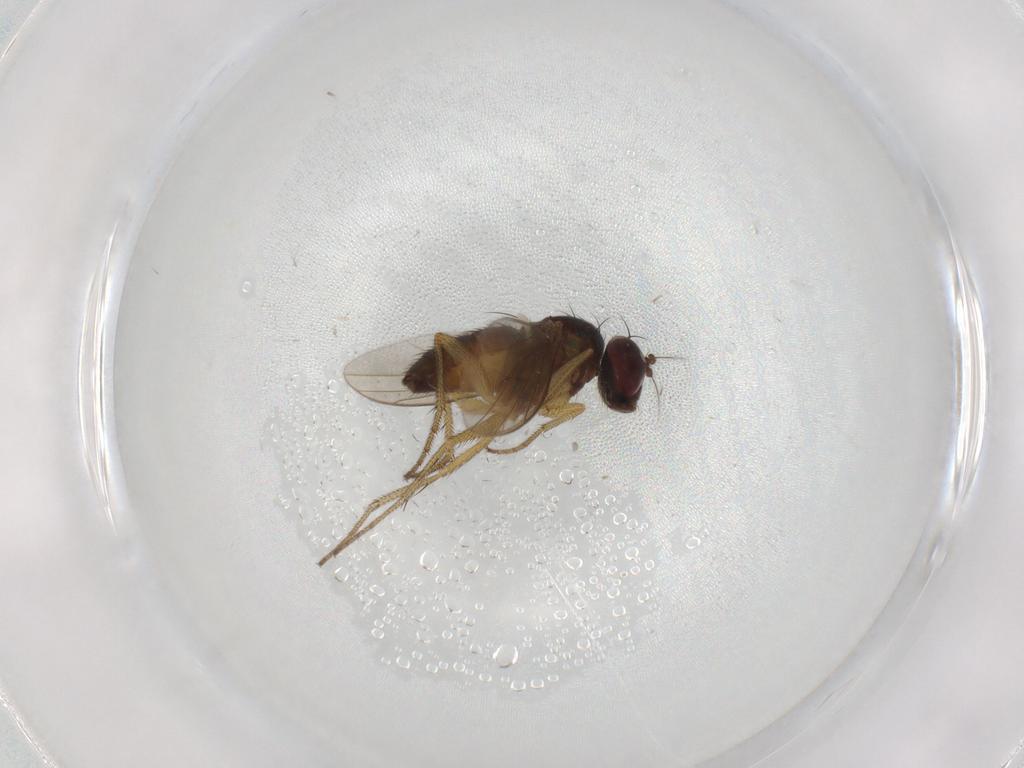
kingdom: Animalia
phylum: Arthropoda
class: Insecta
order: Diptera
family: Dolichopodidae
